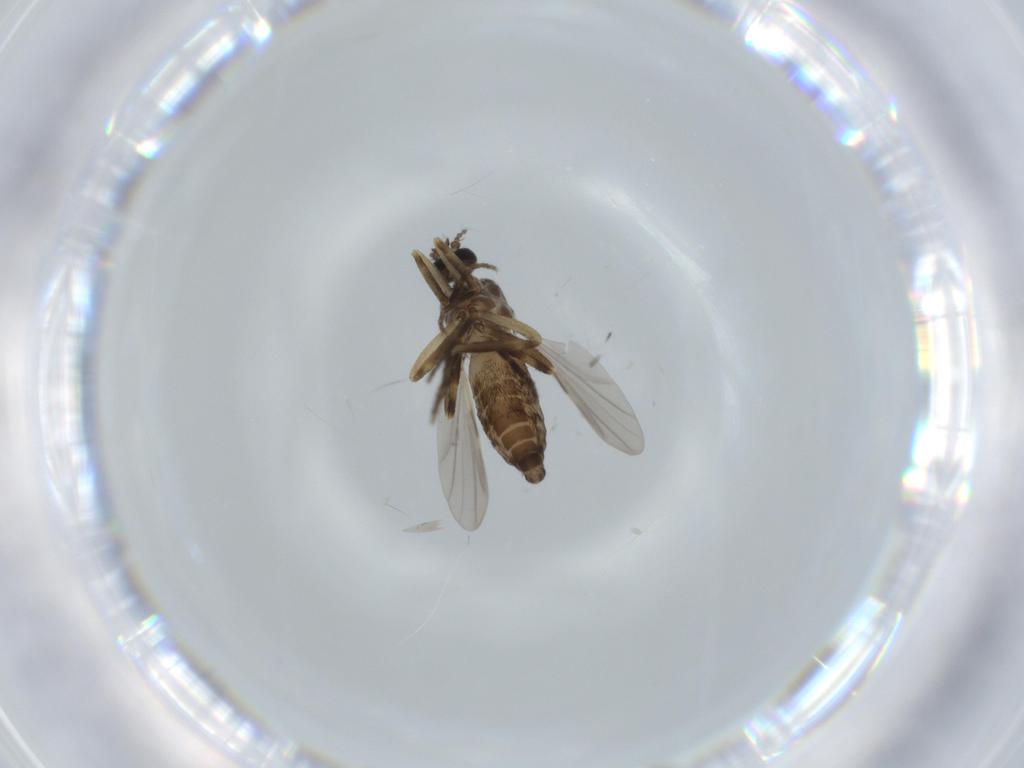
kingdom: Animalia
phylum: Arthropoda
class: Insecta
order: Diptera
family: Ceratopogonidae
